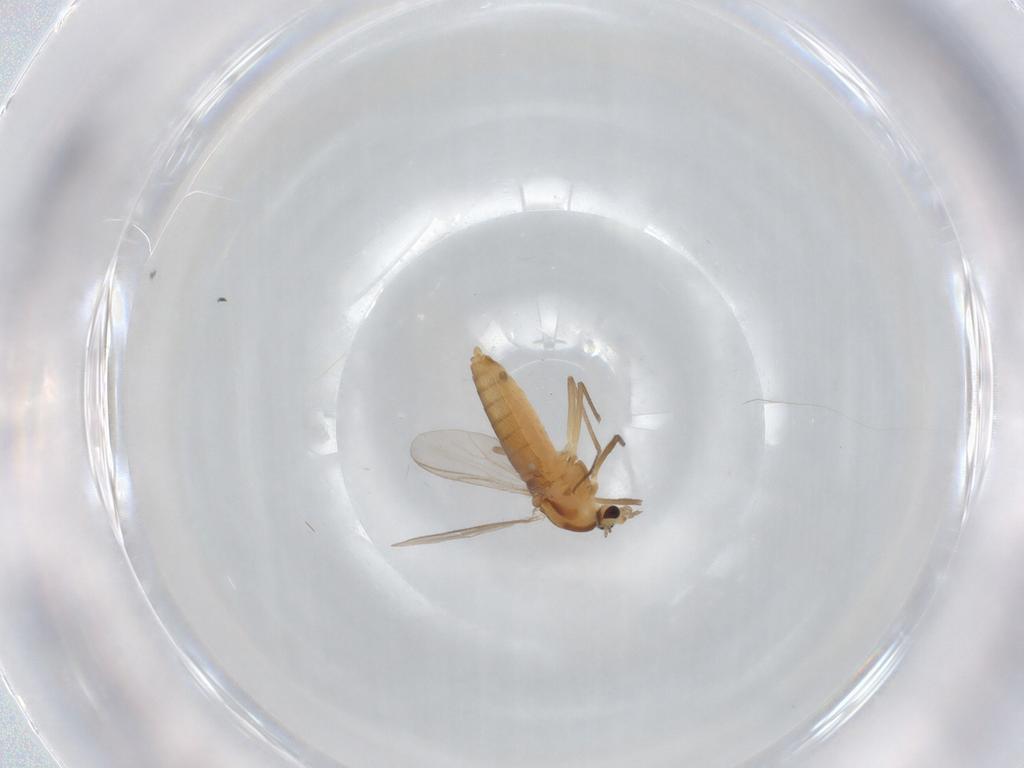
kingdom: Animalia
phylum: Arthropoda
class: Insecta
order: Diptera
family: Chironomidae
